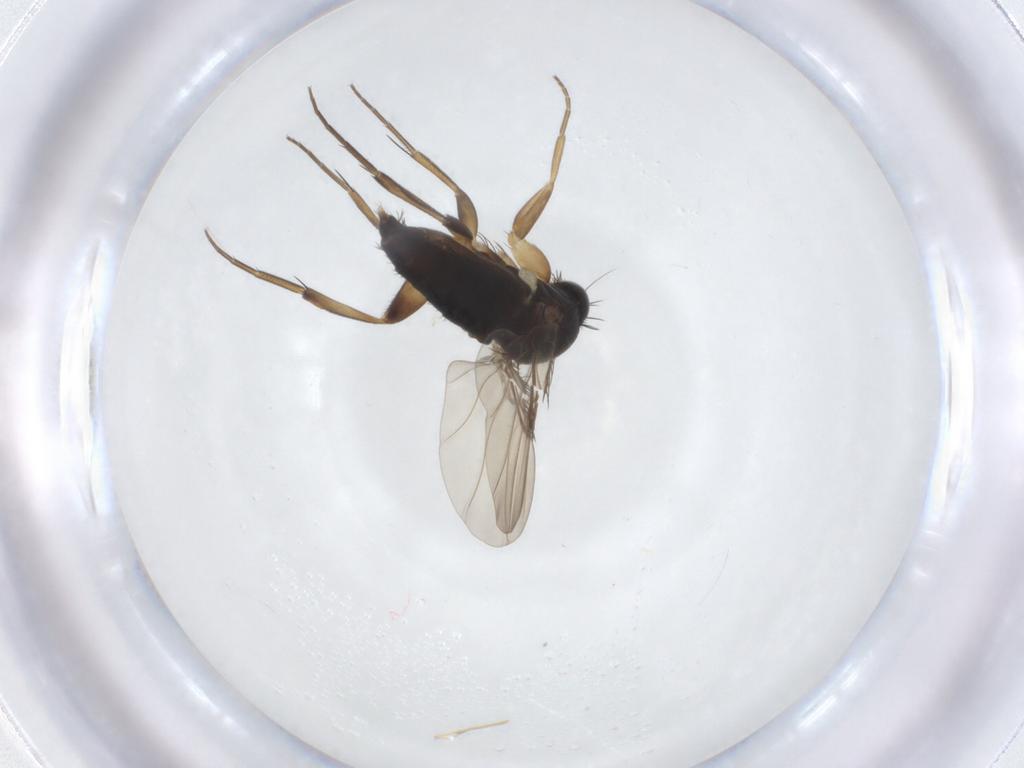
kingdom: Animalia
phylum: Arthropoda
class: Insecta
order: Diptera
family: Phoridae
